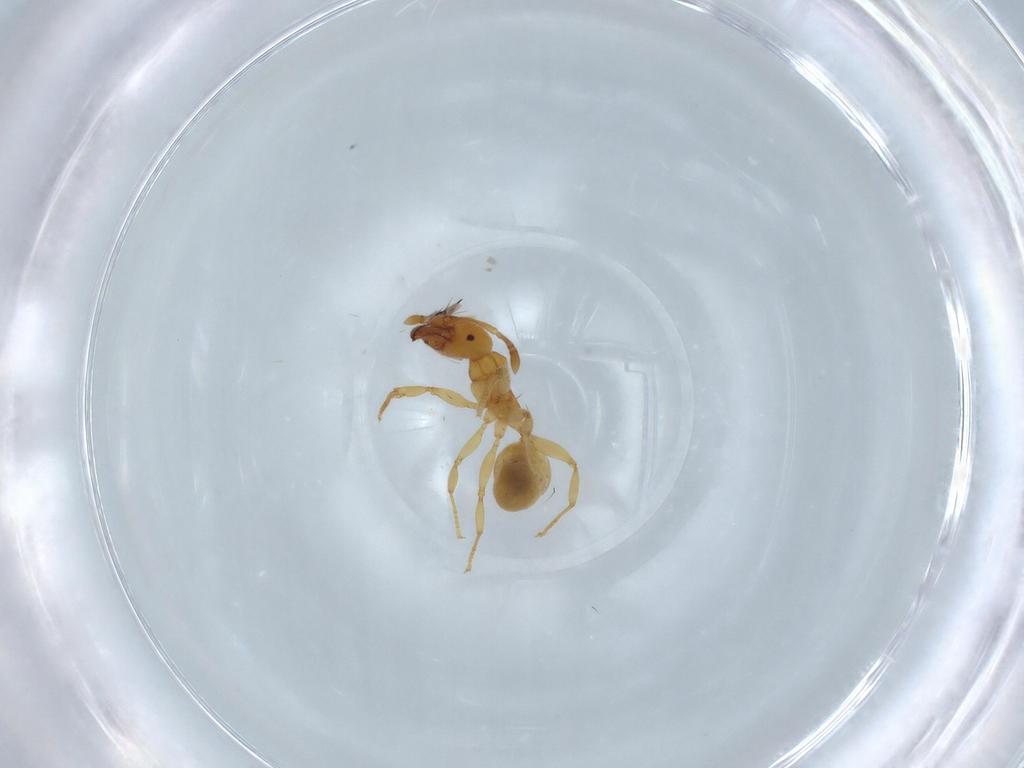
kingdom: Animalia
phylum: Arthropoda
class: Insecta
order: Hymenoptera
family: Formicidae
